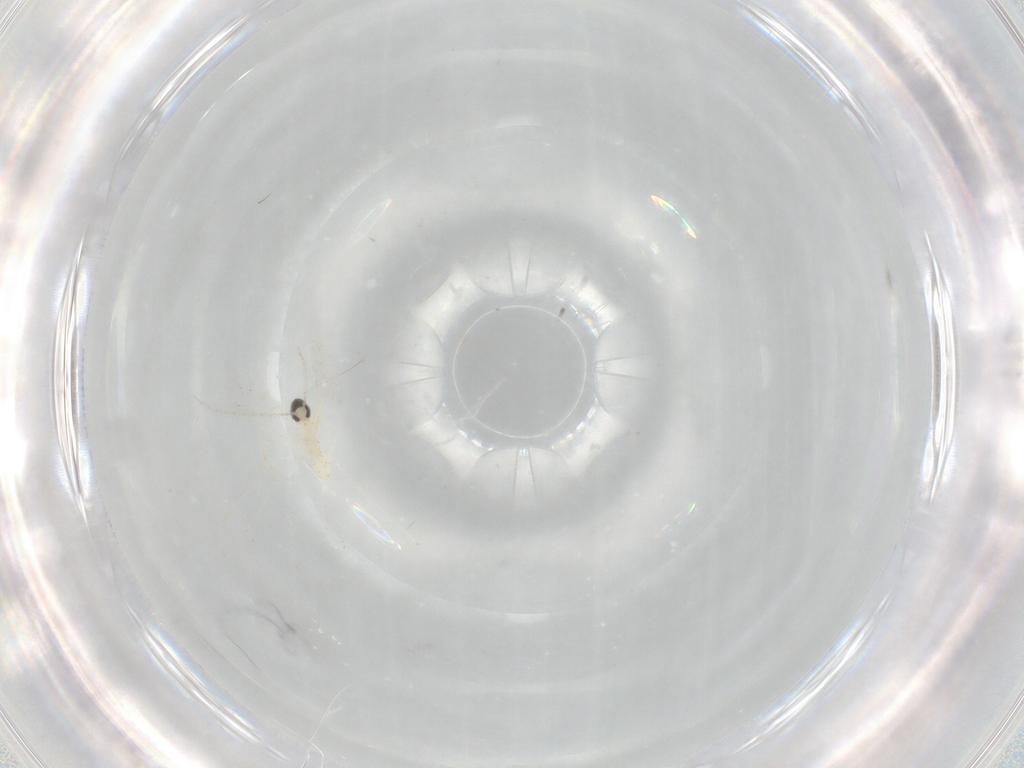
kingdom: Animalia
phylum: Arthropoda
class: Insecta
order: Diptera
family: Cecidomyiidae
